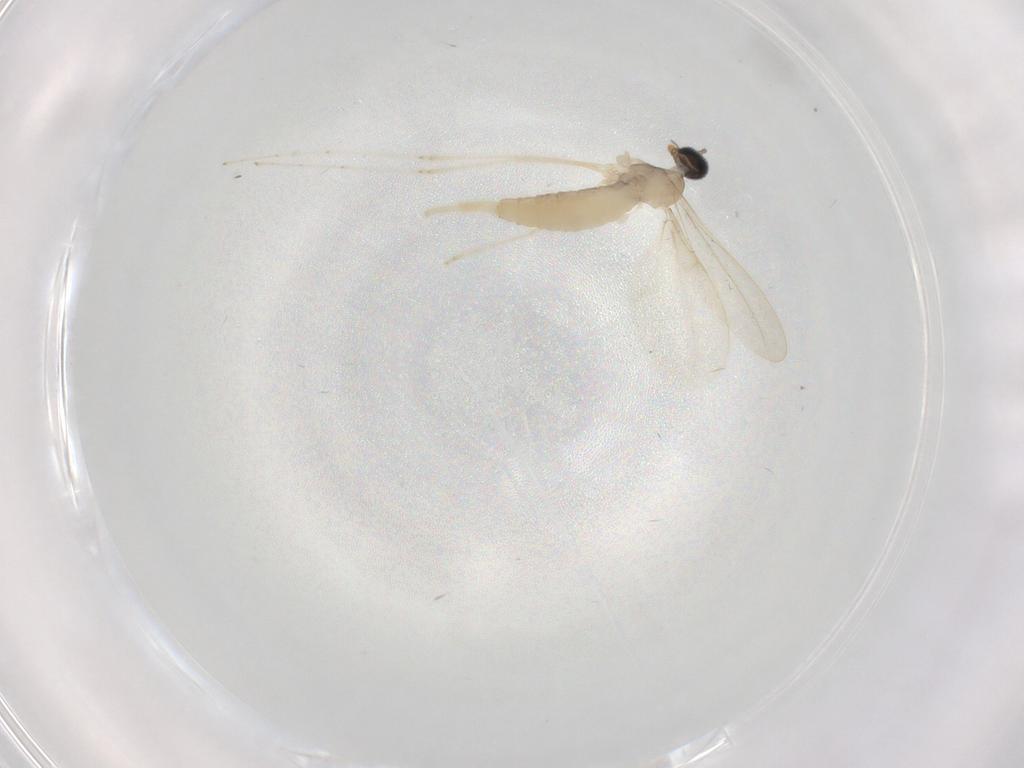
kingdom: Animalia
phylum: Arthropoda
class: Insecta
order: Diptera
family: Cecidomyiidae
